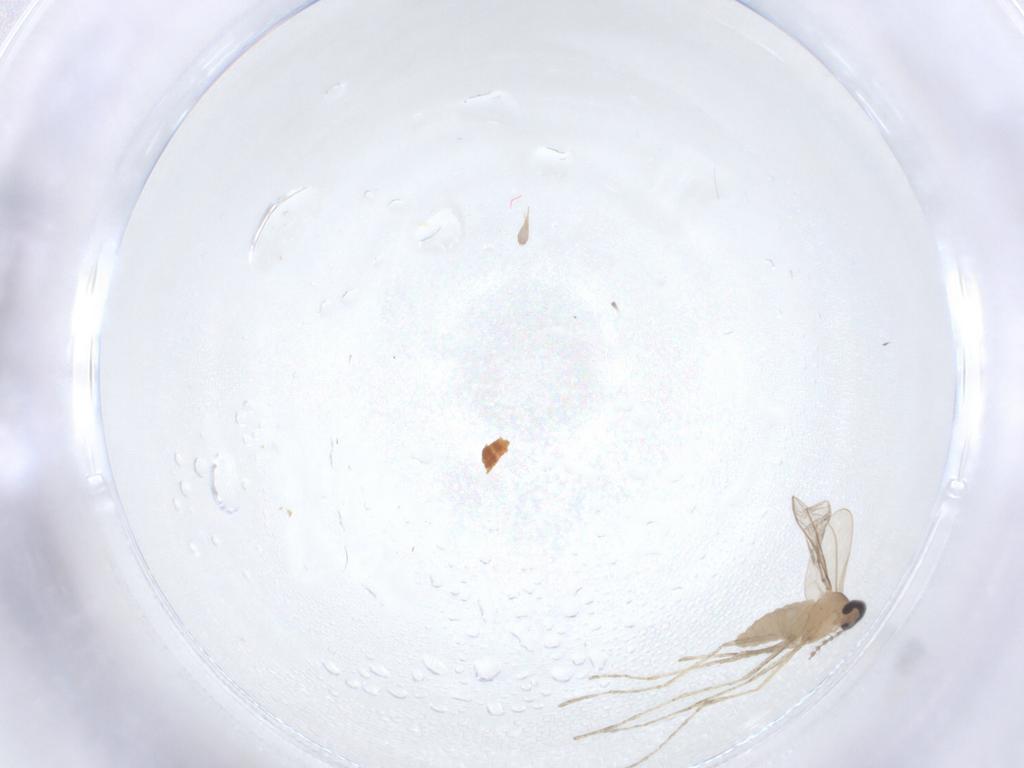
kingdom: Animalia
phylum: Arthropoda
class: Insecta
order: Diptera
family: Cecidomyiidae
